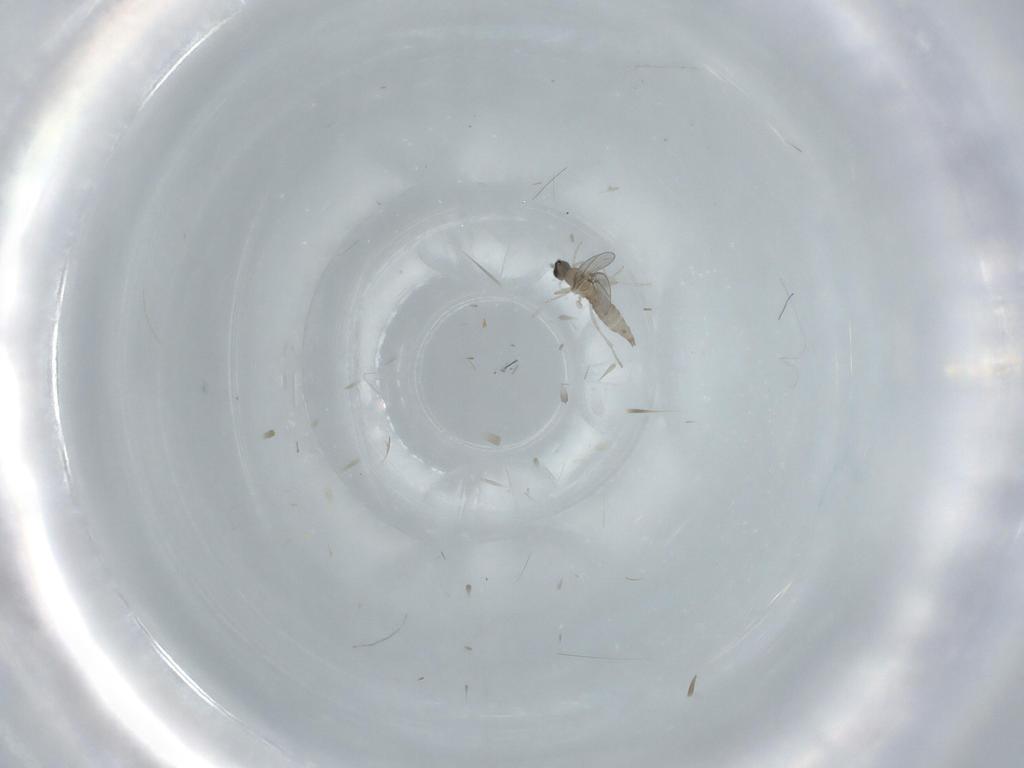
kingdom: Animalia
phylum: Arthropoda
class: Insecta
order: Diptera
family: Cecidomyiidae
